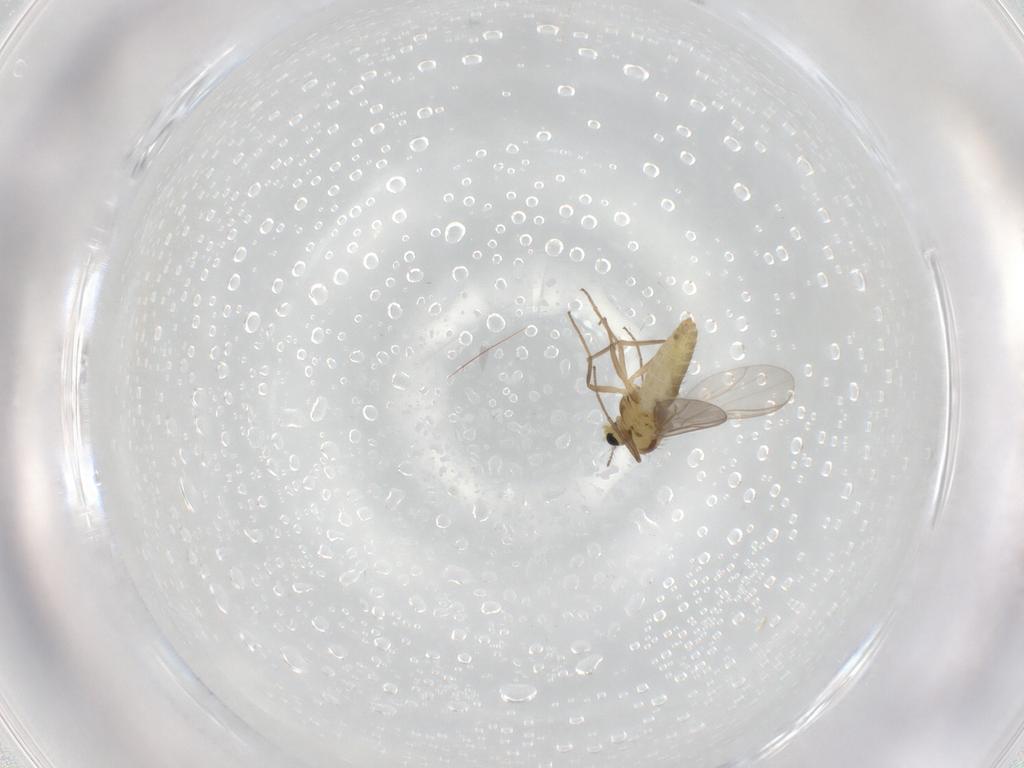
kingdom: Animalia
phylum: Arthropoda
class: Insecta
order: Diptera
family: Chironomidae
